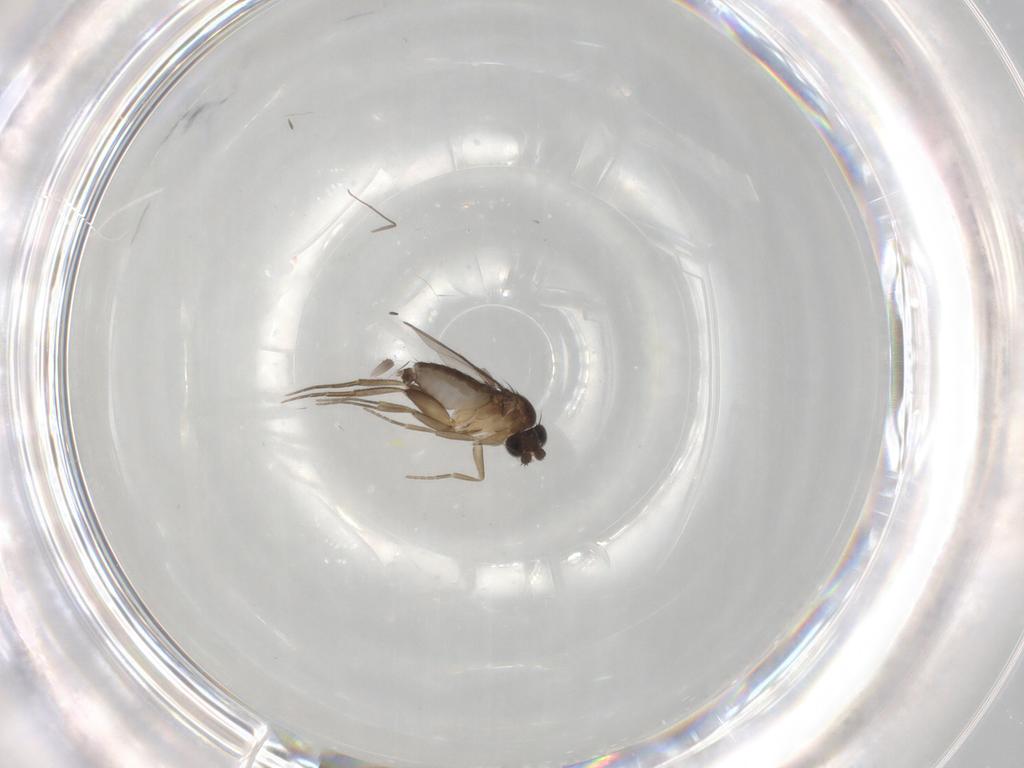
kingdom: Animalia
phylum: Arthropoda
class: Insecta
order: Diptera
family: Phoridae
